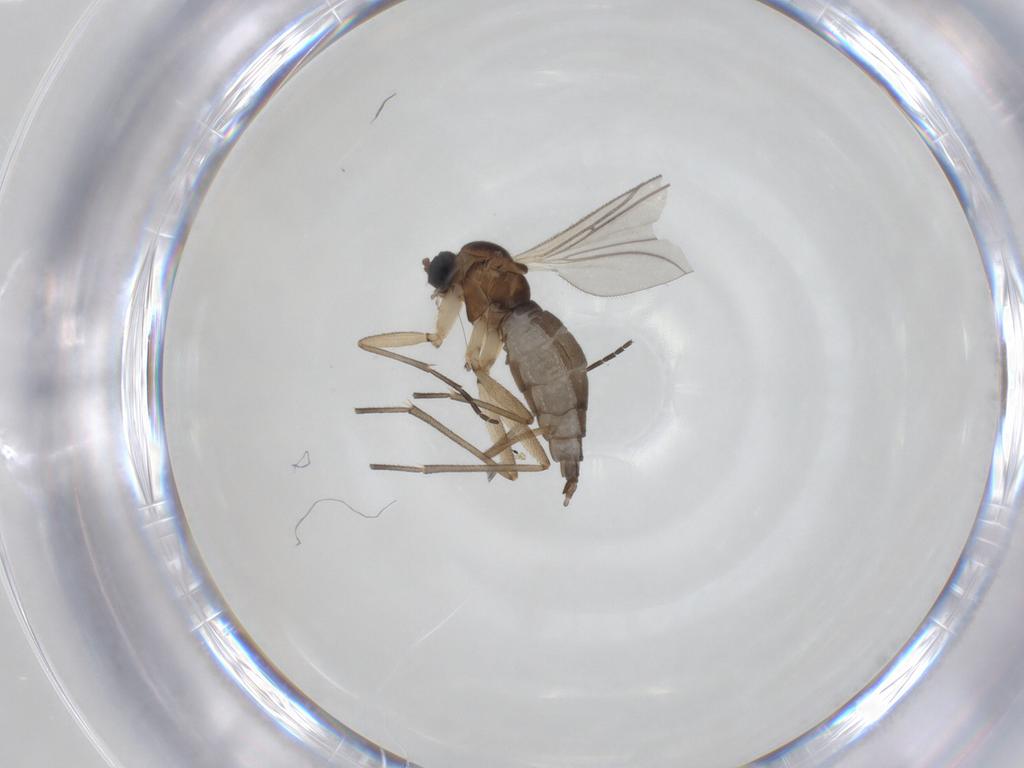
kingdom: Animalia
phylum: Arthropoda
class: Insecta
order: Diptera
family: Sciaridae
